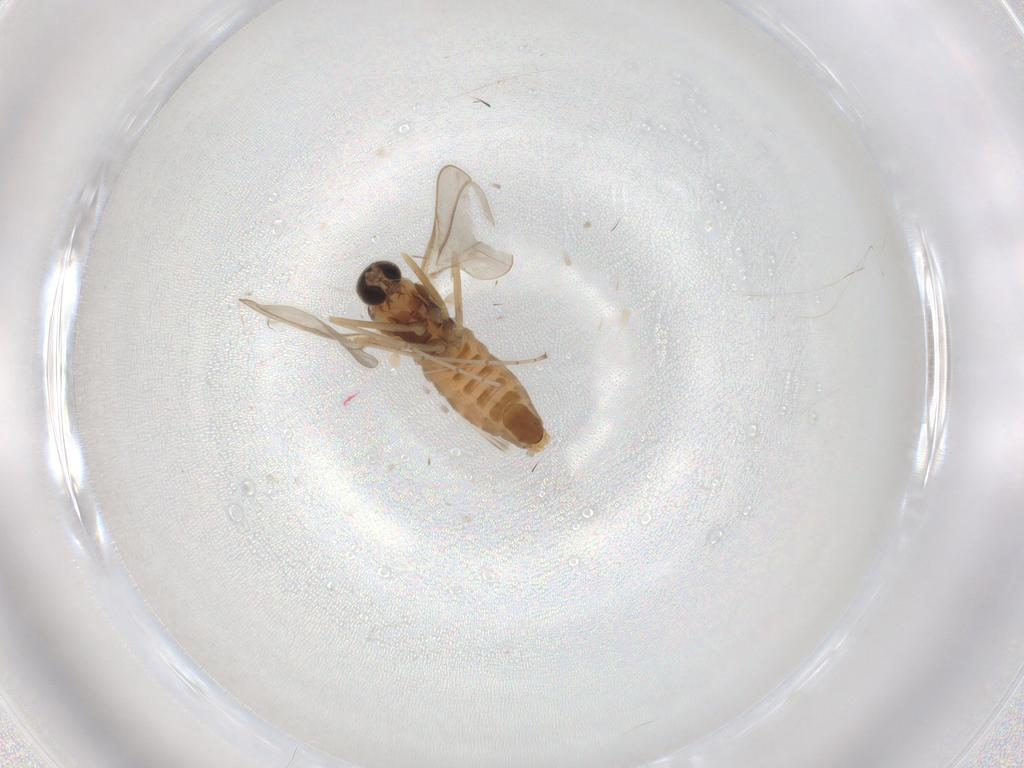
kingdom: Animalia
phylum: Arthropoda
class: Insecta
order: Diptera
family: Cecidomyiidae
